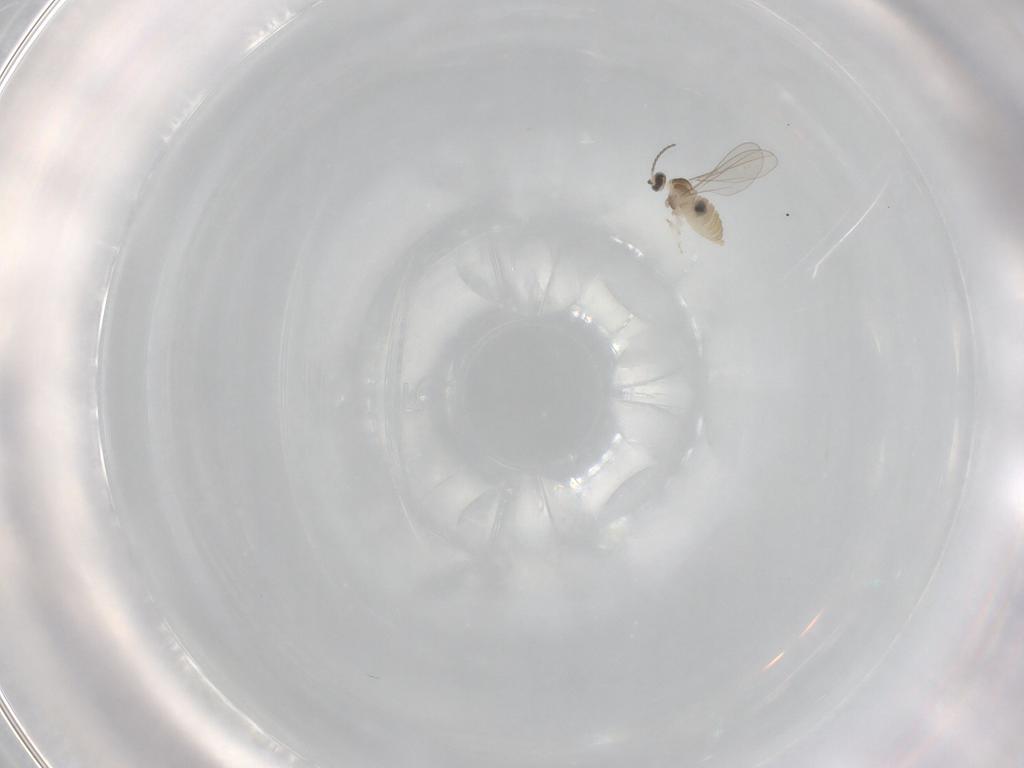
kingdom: Animalia
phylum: Arthropoda
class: Insecta
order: Diptera
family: Cecidomyiidae
